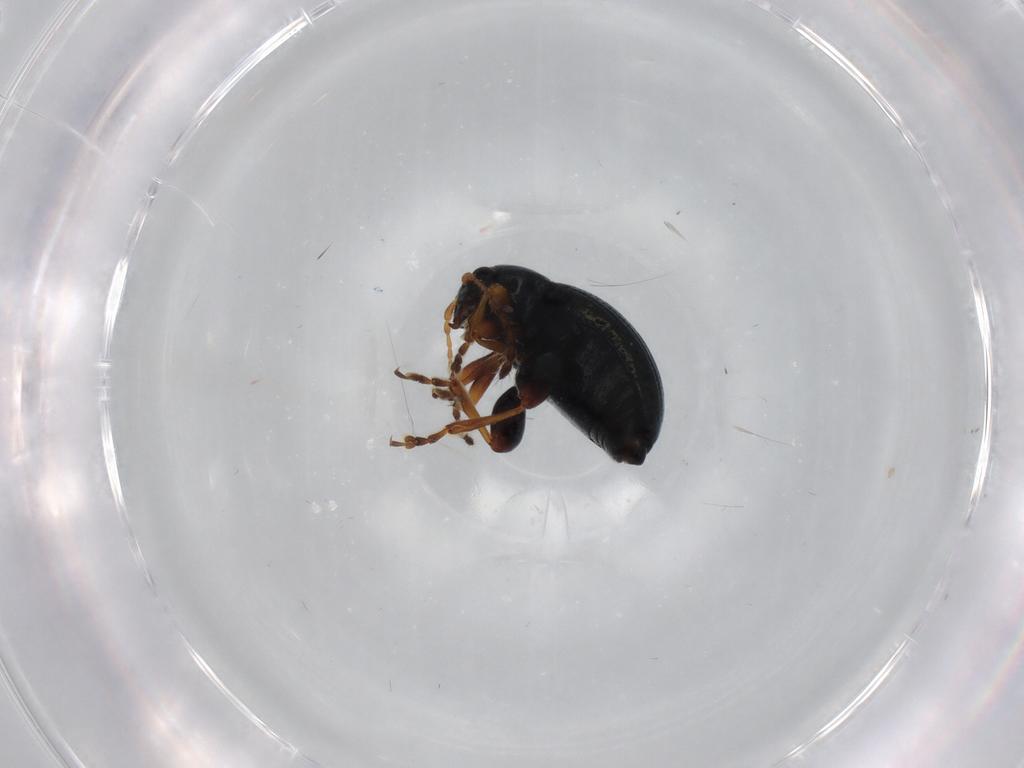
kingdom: Animalia
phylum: Arthropoda
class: Insecta
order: Coleoptera
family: Chrysomelidae
